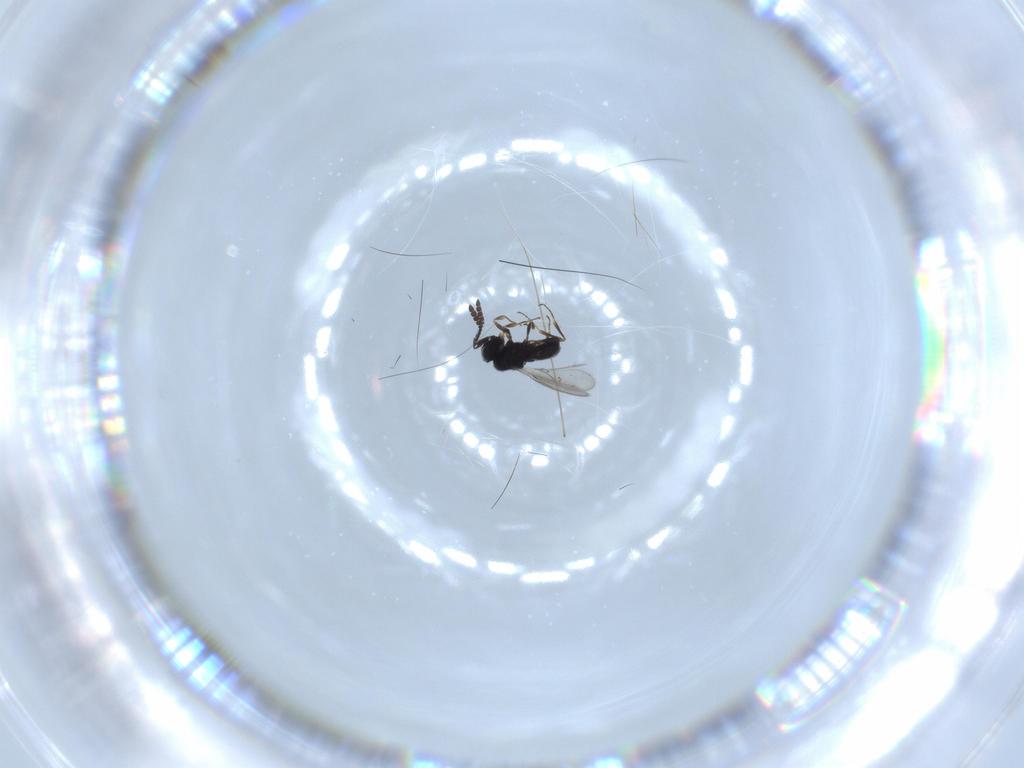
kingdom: Animalia
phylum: Arthropoda
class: Insecta
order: Hymenoptera
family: Scelionidae
